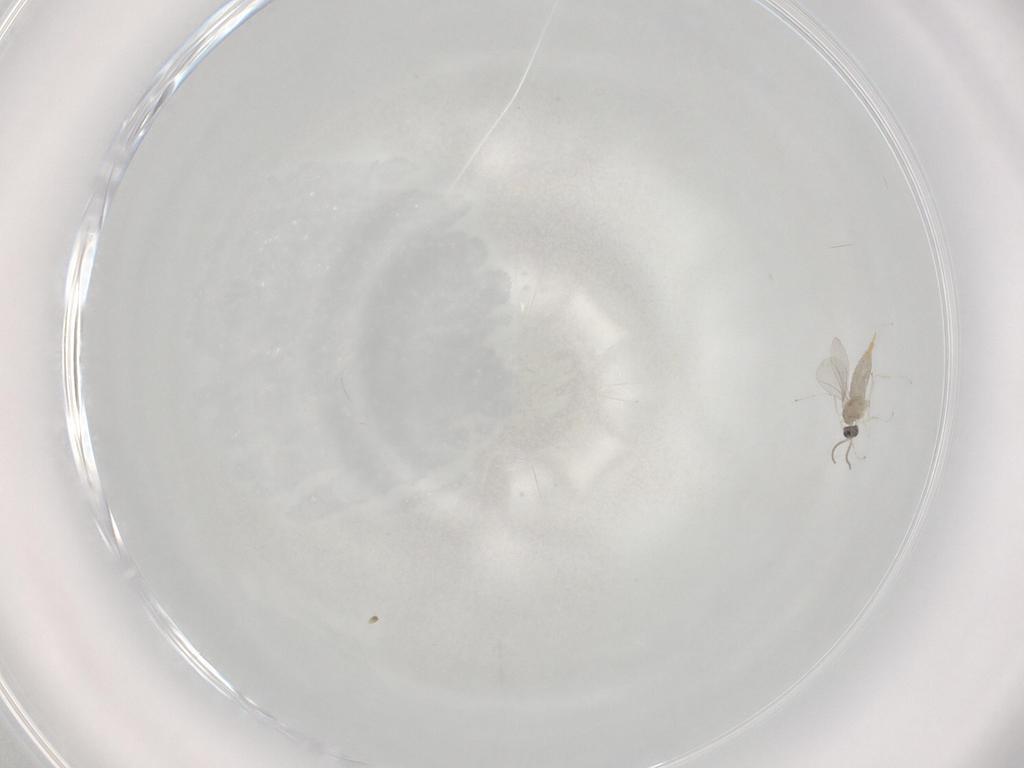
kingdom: Animalia
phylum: Arthropoda
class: Insecta
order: Diptera
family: Cecidomyiidae
